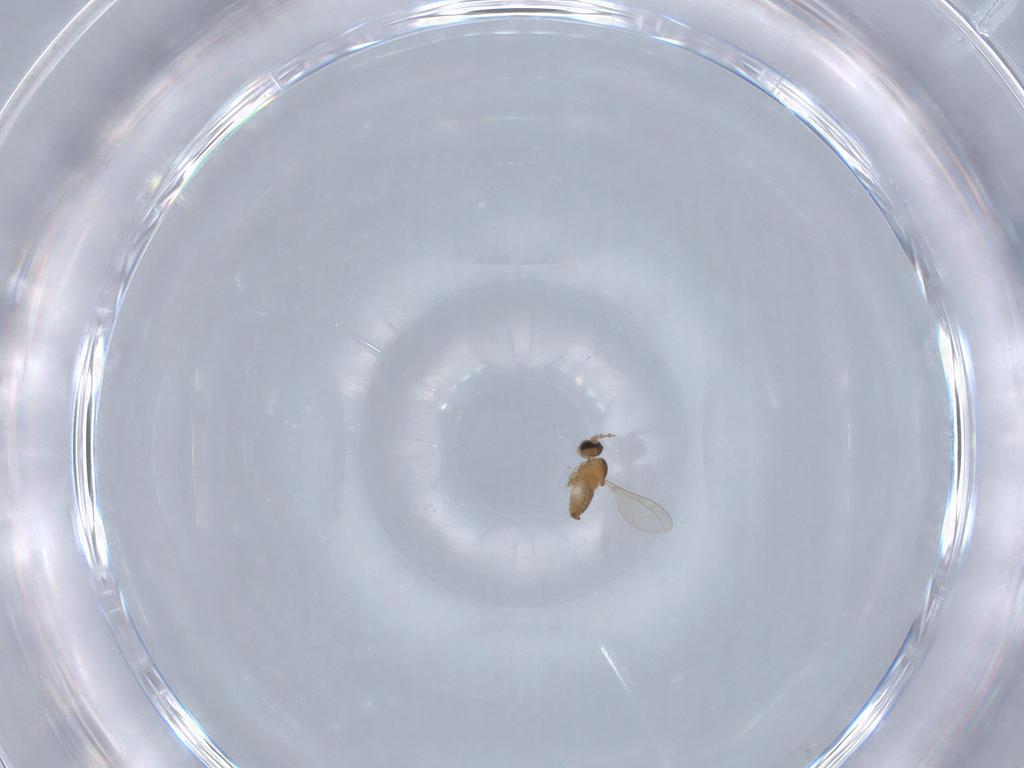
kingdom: Animalia
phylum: Arthropoda
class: Insecta
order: Diptera
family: Cecidomyiidae
